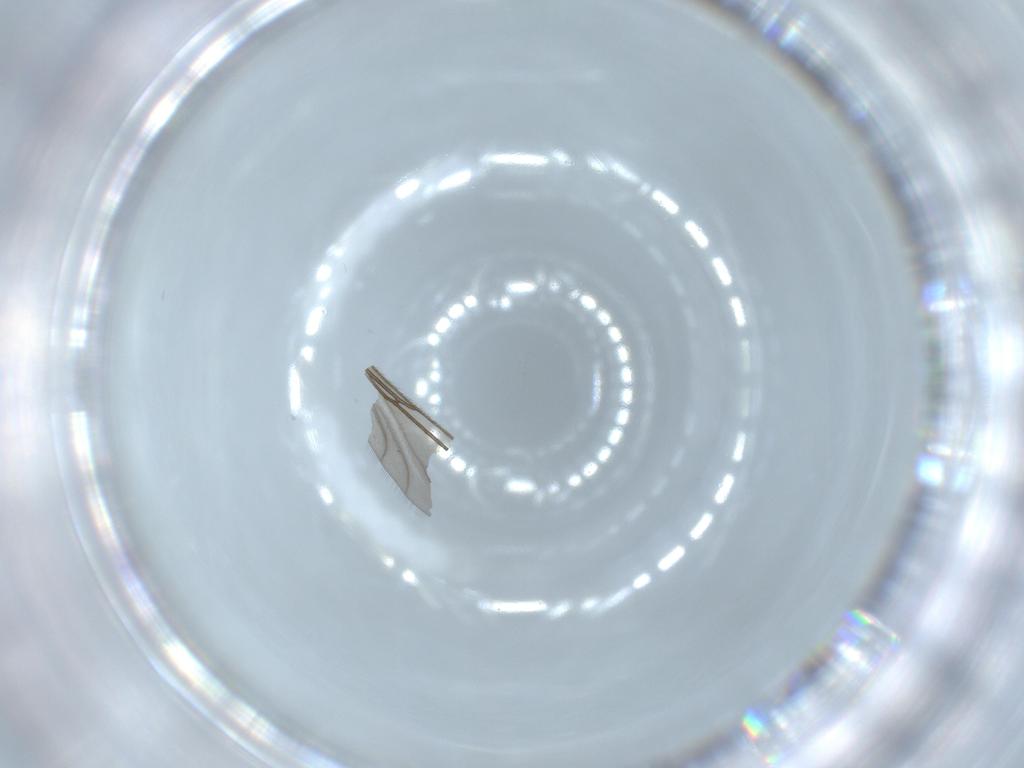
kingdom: Animalia
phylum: Arthropoda
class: Insecta
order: Diptera
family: Sciaridae
